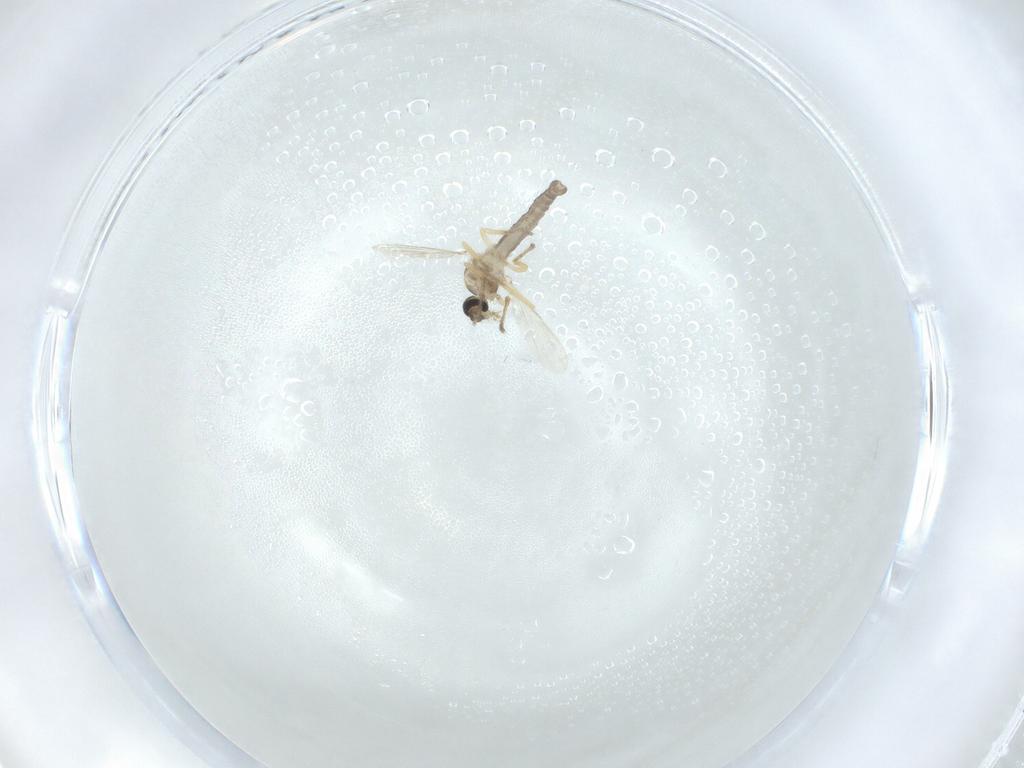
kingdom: Animalia
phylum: Arthropoda
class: Insecta
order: Diptera
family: Ceratopogonidae
